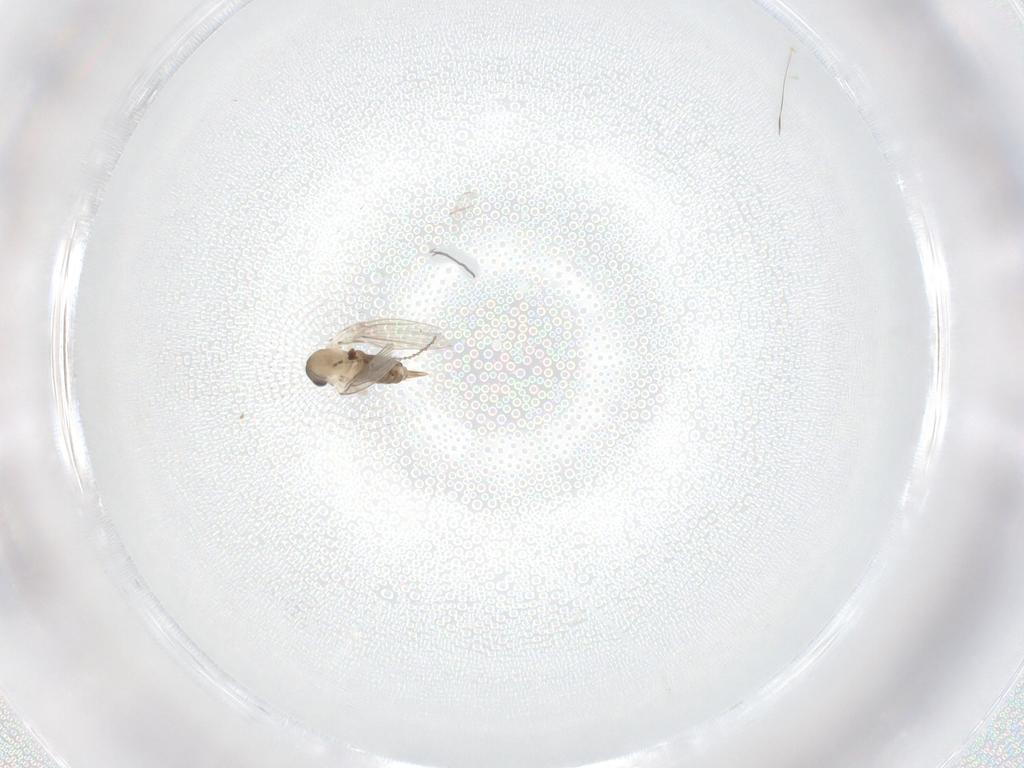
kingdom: Animalia
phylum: Arthropoda
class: Insecta
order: Diptera
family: Psychodidae
